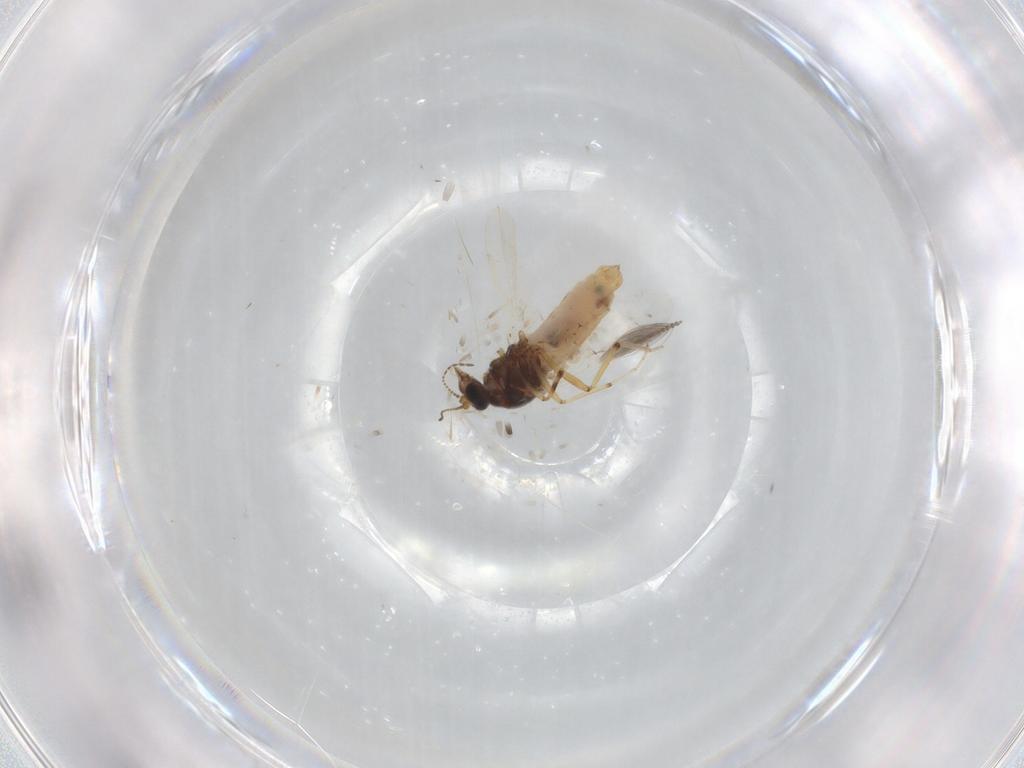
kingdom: Animalia
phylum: Arthropoda
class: Insecta
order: Diptera
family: Ceratopogonidae
